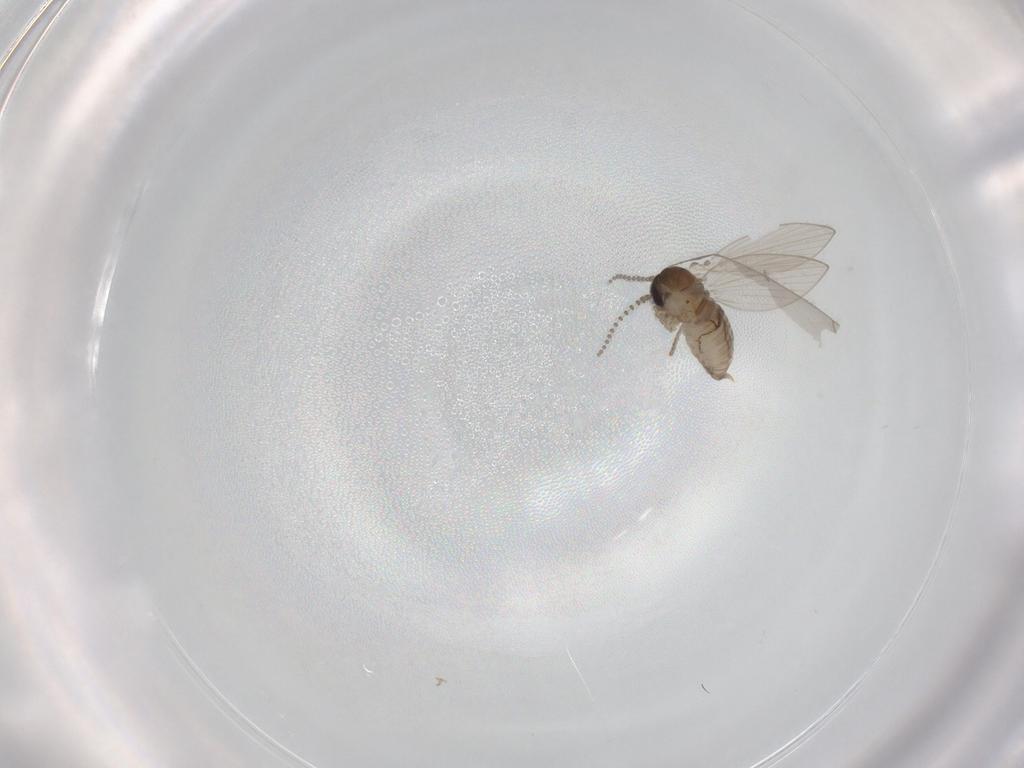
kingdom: Animalia
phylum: Arthropoda
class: Insecta
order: Diptera
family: Psychodidae
